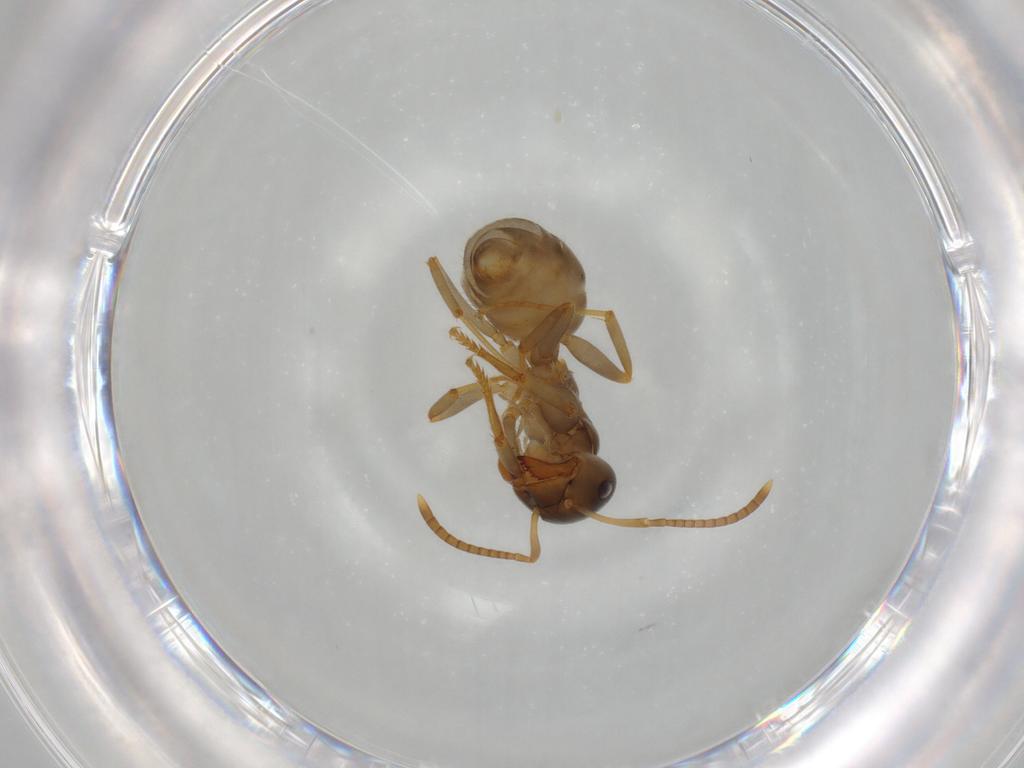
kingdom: Animalia
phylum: Arthropoda
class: Insecta
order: Hymenoptera
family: Formicidae
